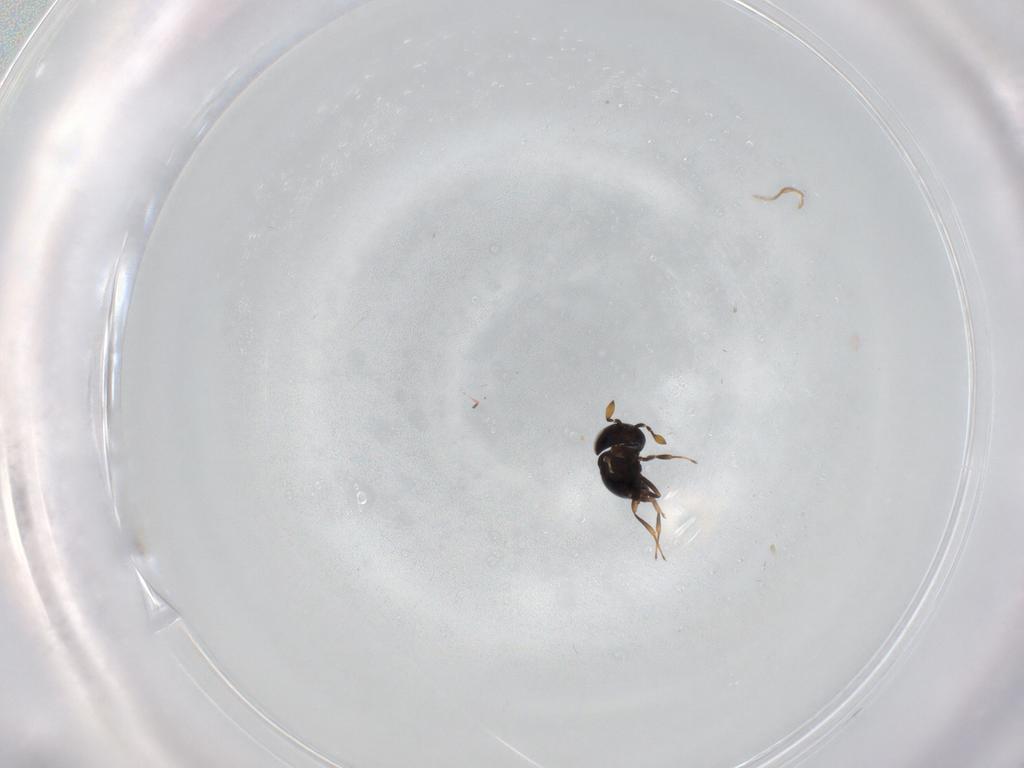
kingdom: Animalia
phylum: Arthropoda
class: Insecta
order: Hymenoptera
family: Scelionidae
